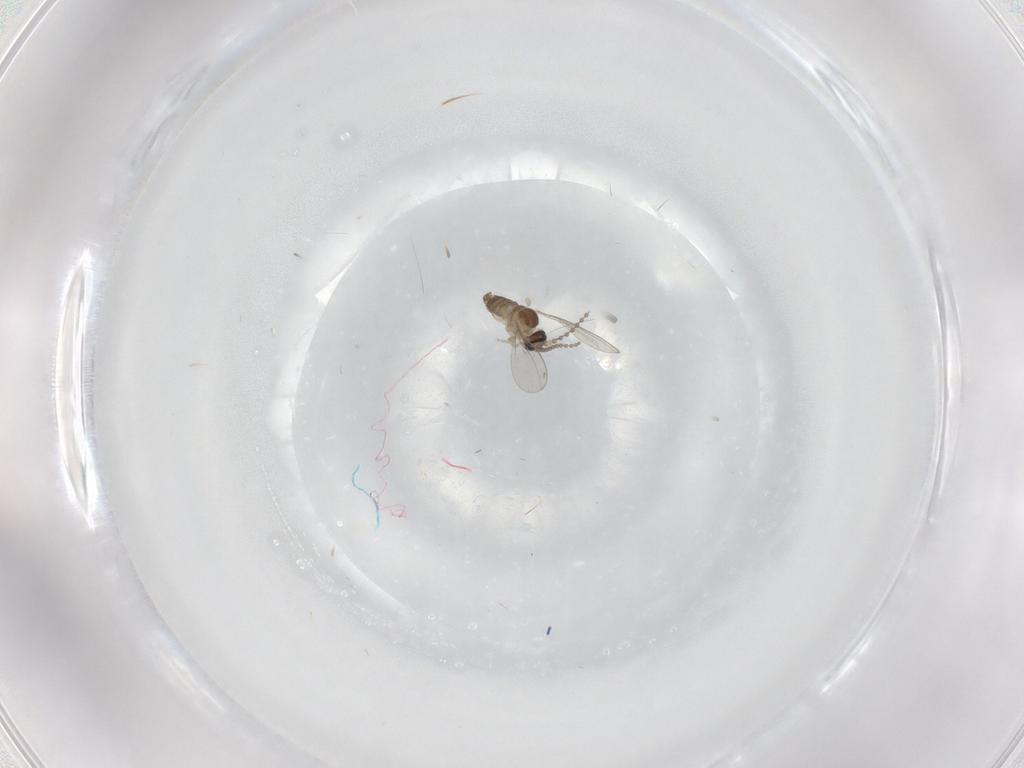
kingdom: Animalia
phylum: Arthropoda
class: Insecta
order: Diptera
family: Cecidomyiidae
